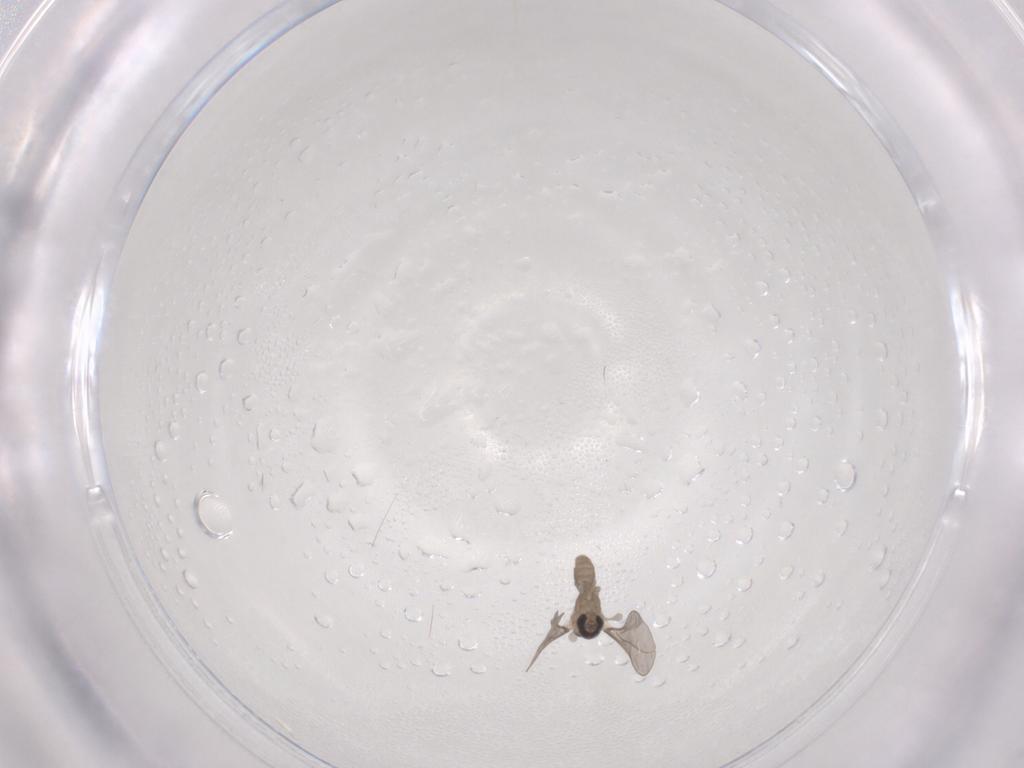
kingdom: Animalia
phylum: Arthropoda
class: Insecta
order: Diptera
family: Cecidomyiidae
